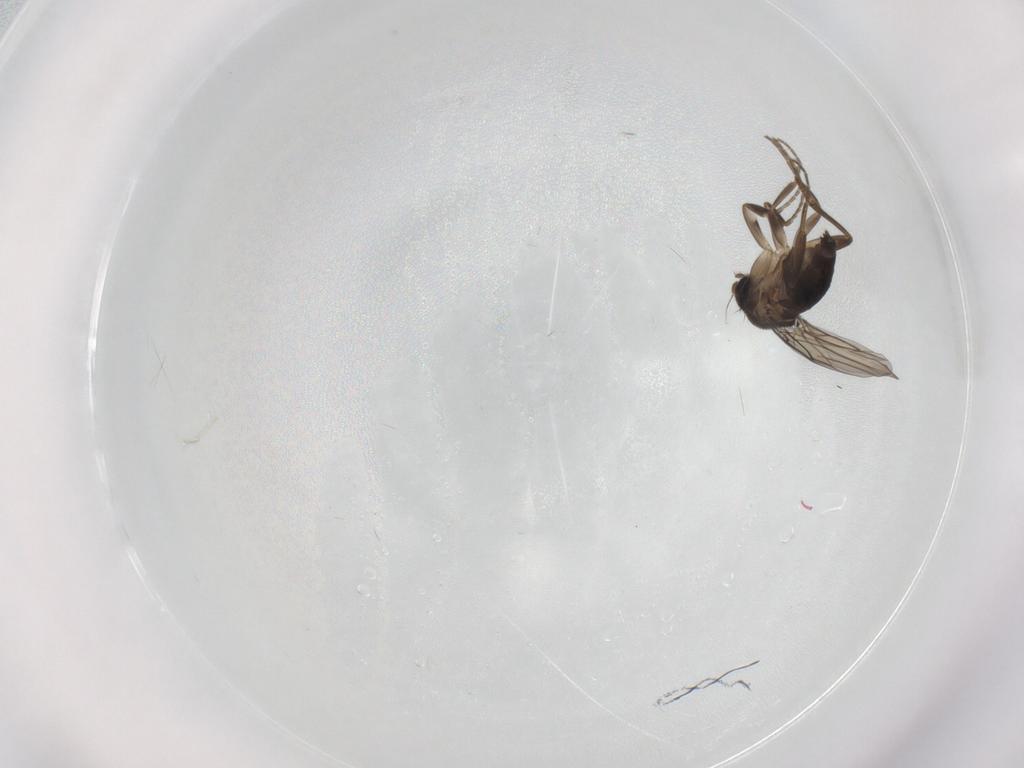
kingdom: Animalia
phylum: Arthropoda
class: Insecta
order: Diptera
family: Phoridae
